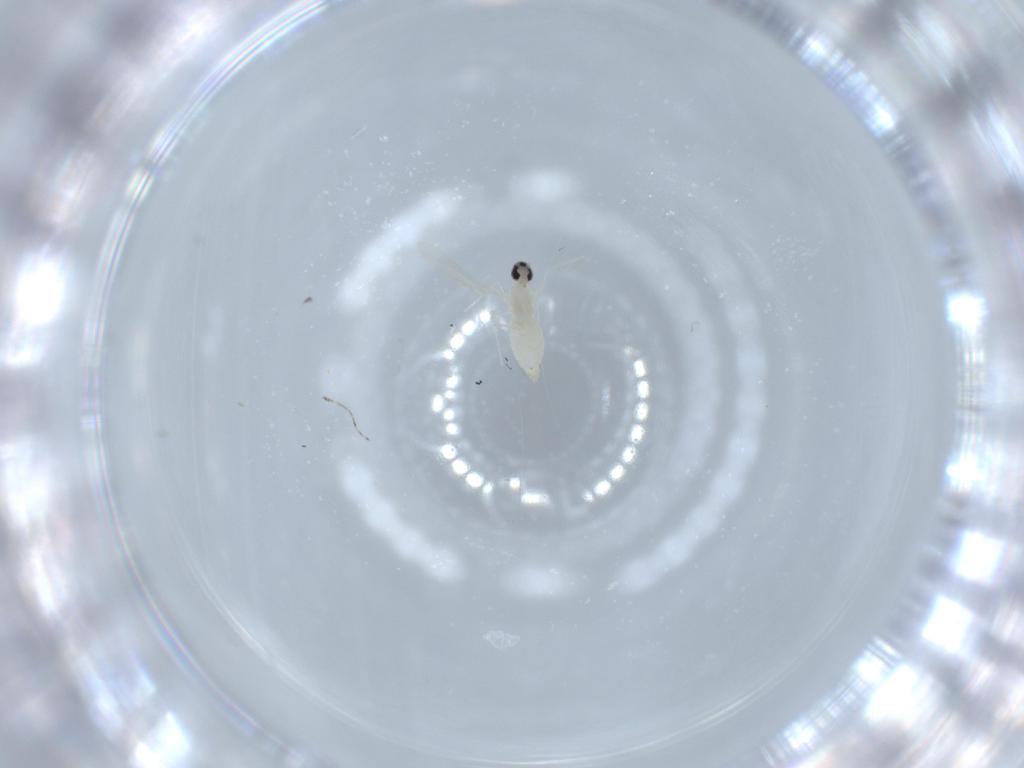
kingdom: Animalia
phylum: Arthropoda
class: Insecta
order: Diptera
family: Cecidomyiidae
